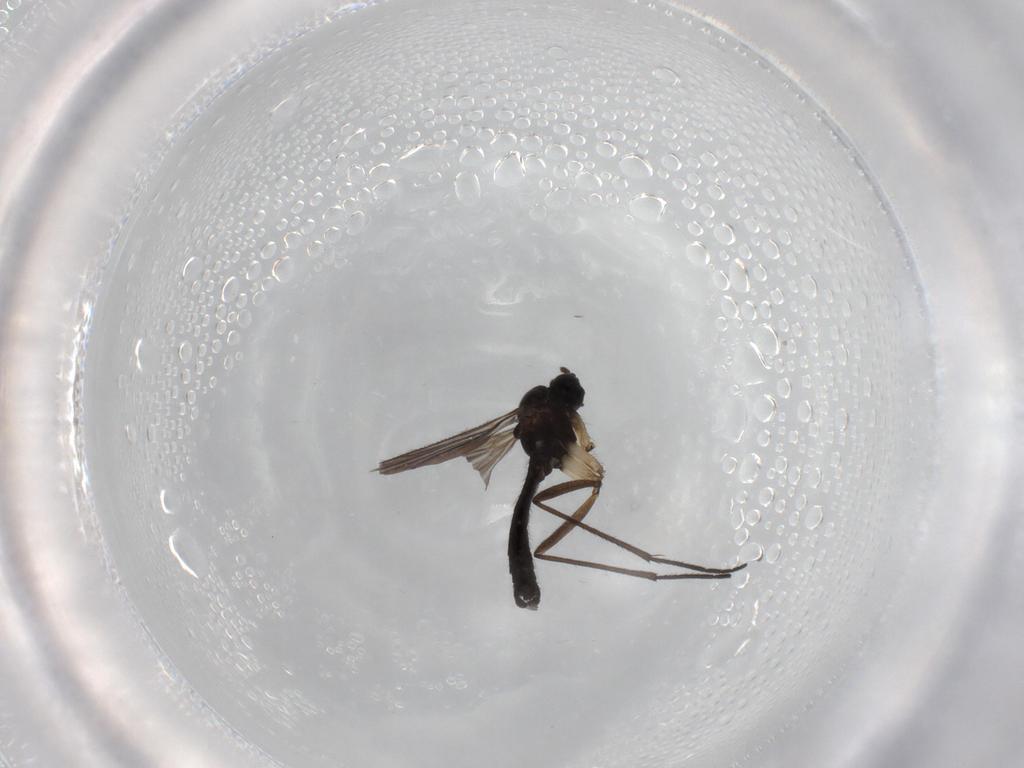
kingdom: Animalia
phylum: Arthropoda
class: Insecta
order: Diptera
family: Sciaridae
